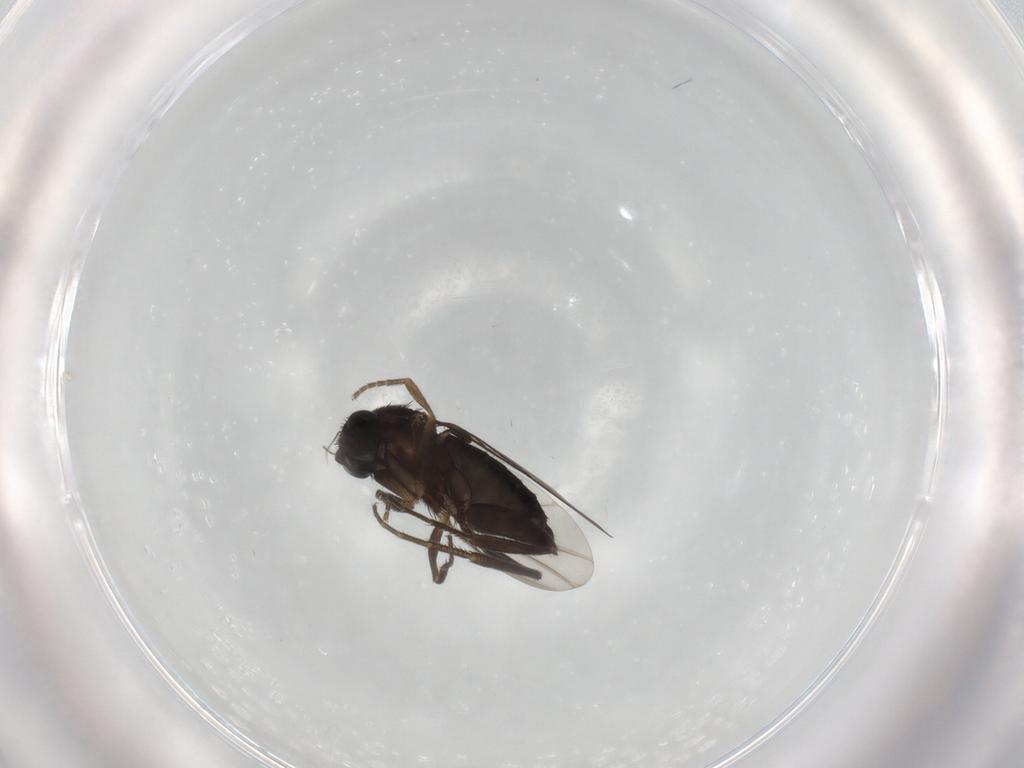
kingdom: Animalia
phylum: Arthropoda
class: Insecta
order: Diptera
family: Phoridae
